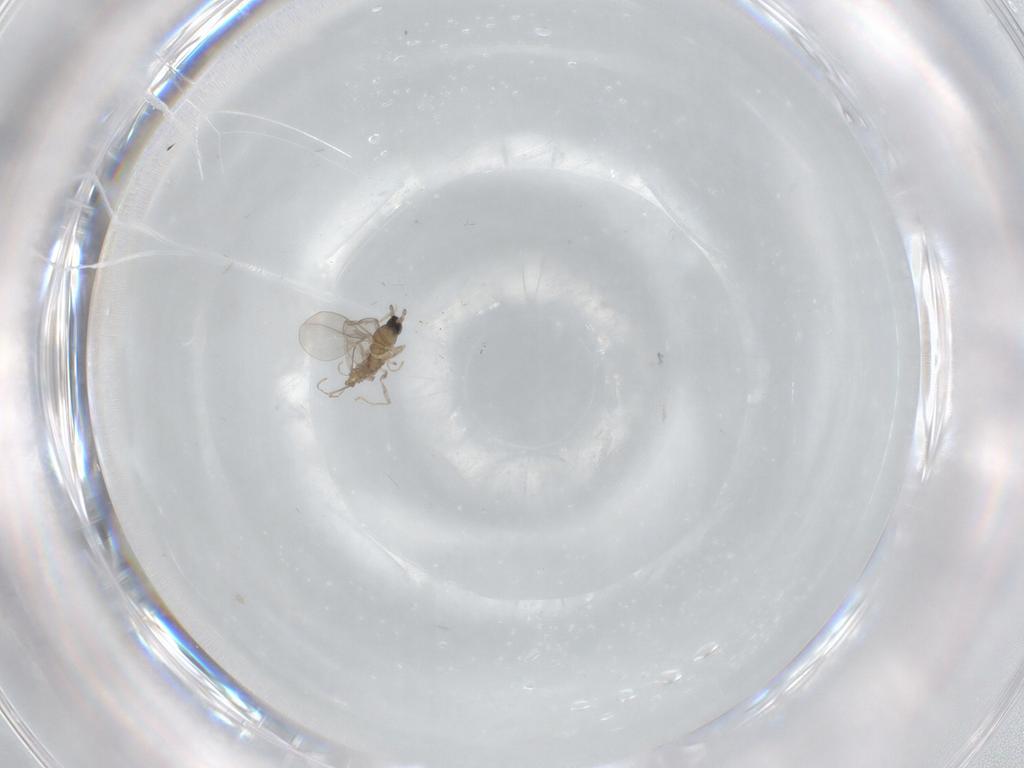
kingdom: Animalia
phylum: Arthropoda
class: Insecta
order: Diptera
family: Cecidomyiidae
